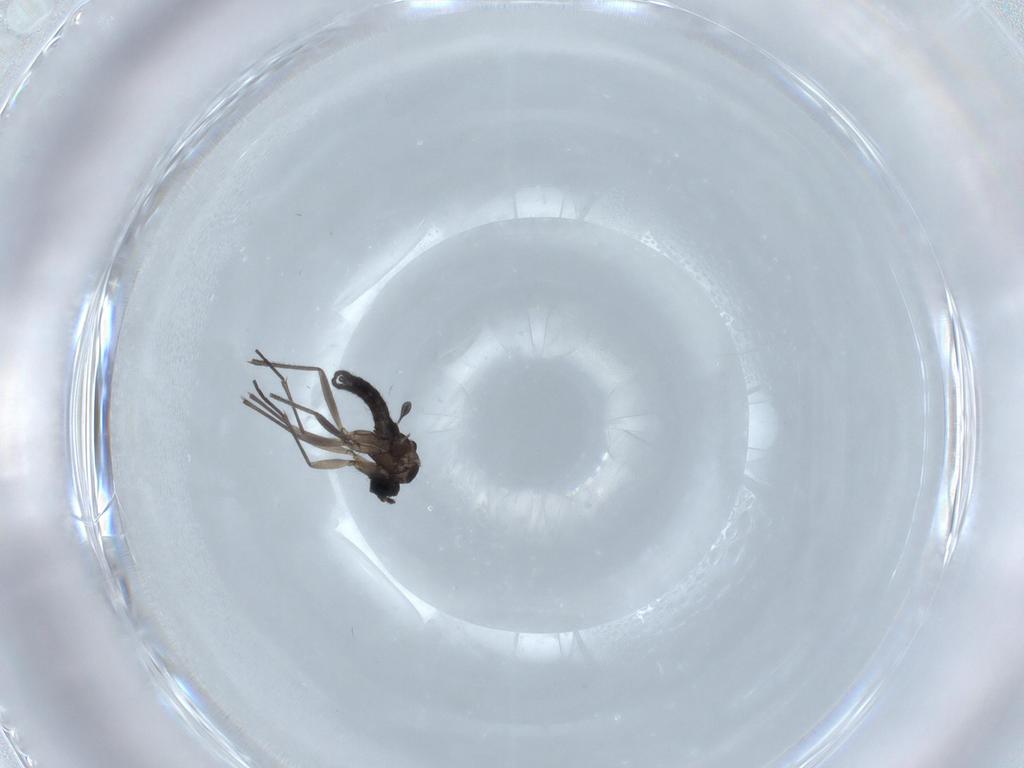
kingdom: Animalia
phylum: Arthropoda
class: Insecta
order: Diptera
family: Sciaridae
